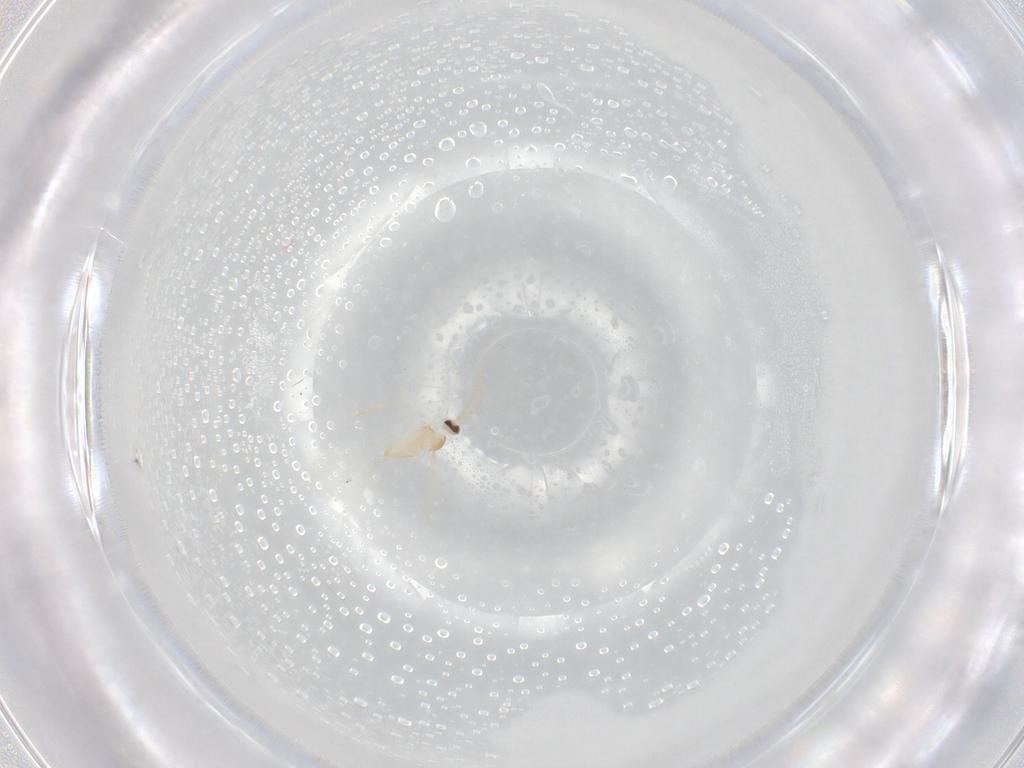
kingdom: Animalia
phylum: Arthropoda
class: Insecta
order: Diptera
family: Cecidomyiidae
